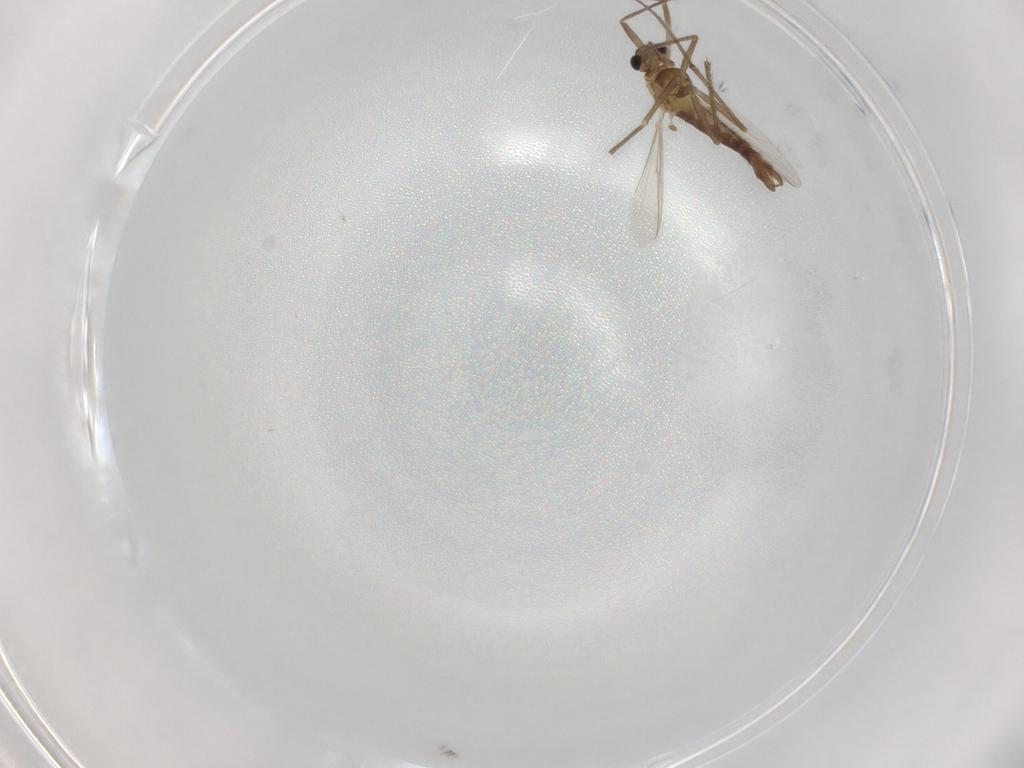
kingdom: Animalia
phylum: Arthropoda
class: Insecta
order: Diptera
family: Chironomidae
